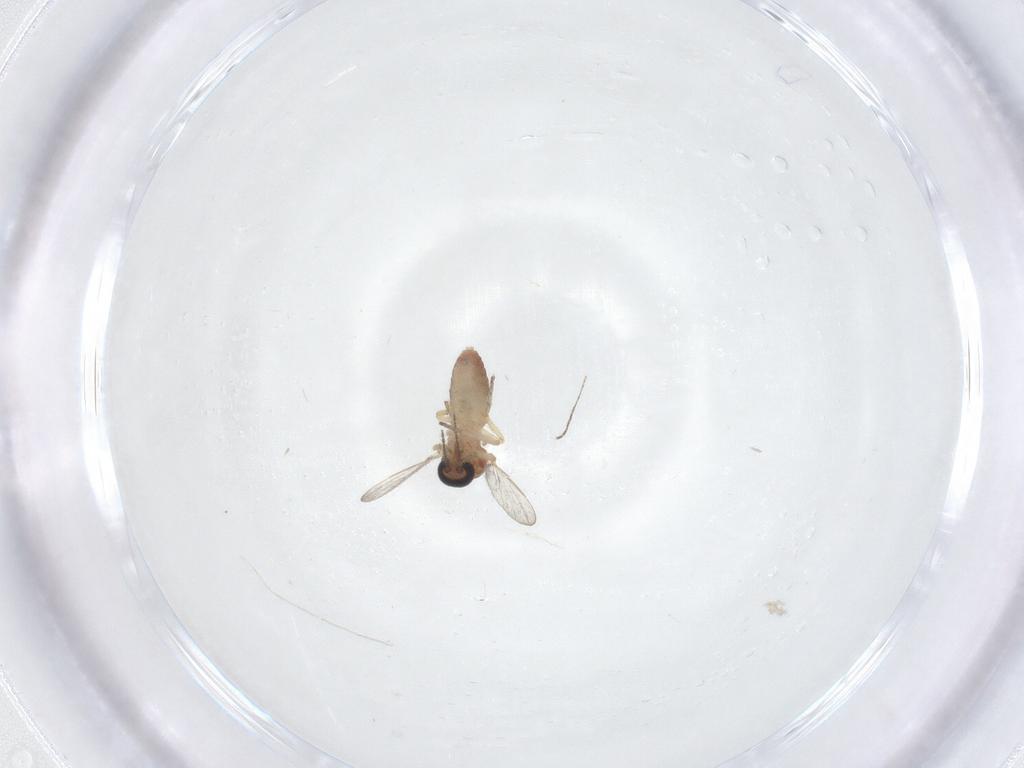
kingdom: Animalia
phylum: Arthropoda
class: Insecta
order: Diptera
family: Ceratopogonidae
